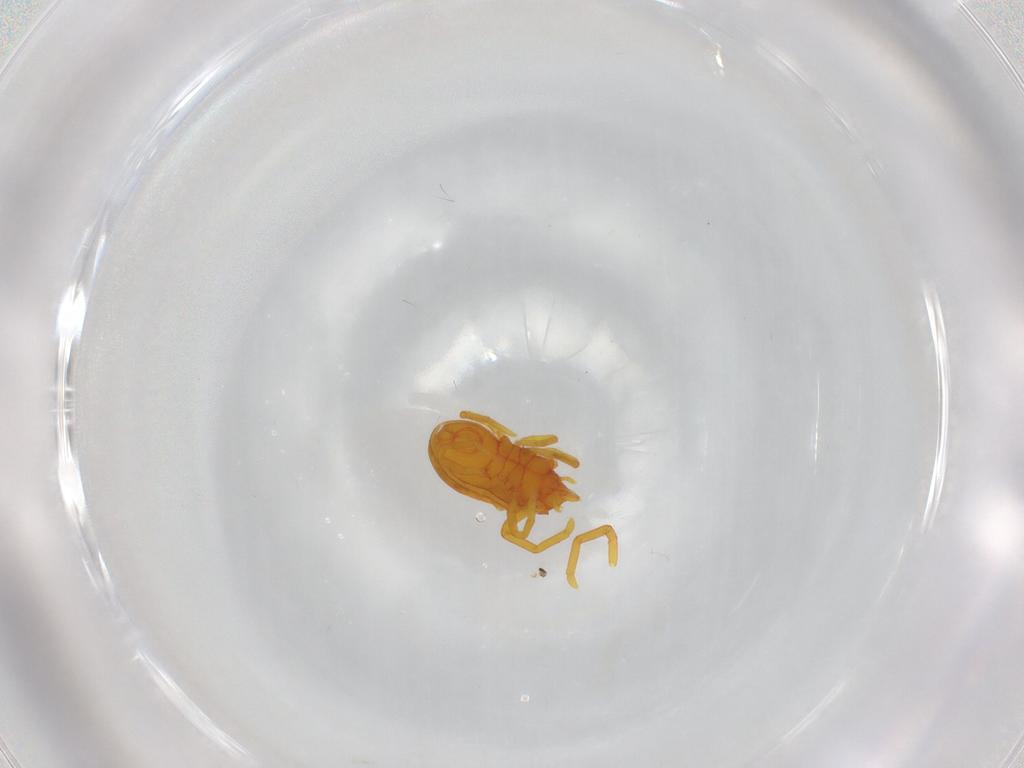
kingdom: Animalia
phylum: Arthropoda
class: Arachnida
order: Trombidiformes
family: Labidostommidae
